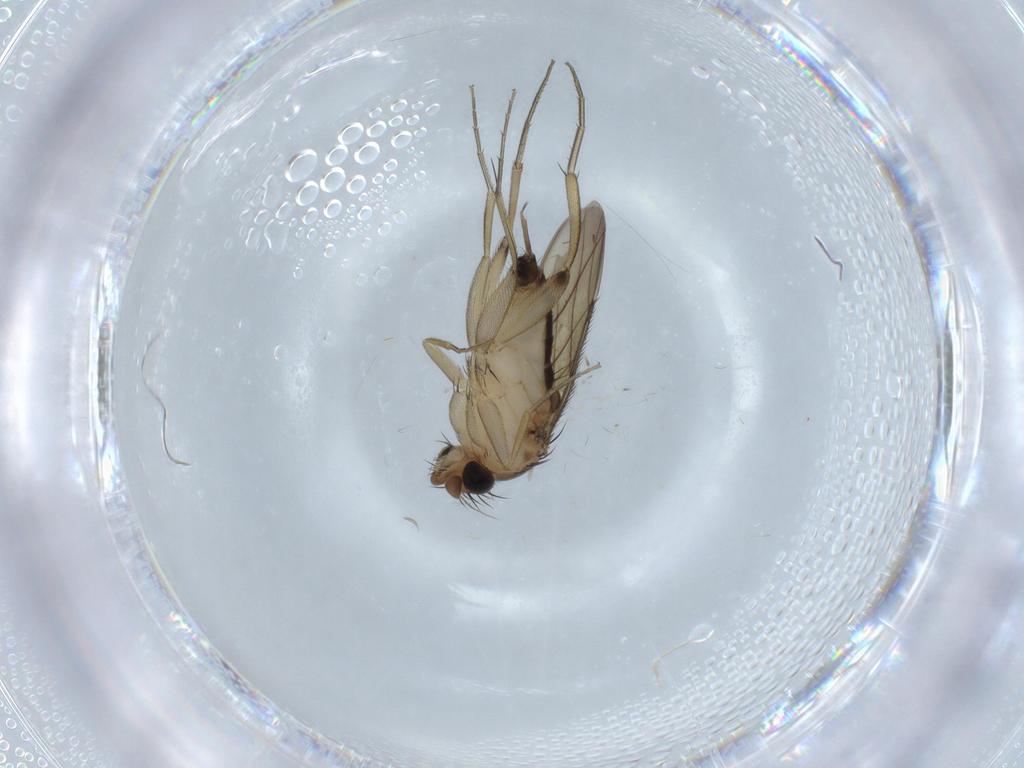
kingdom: Animalia
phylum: Arthropoda
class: Insecta
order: Diptera
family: Phoridae
